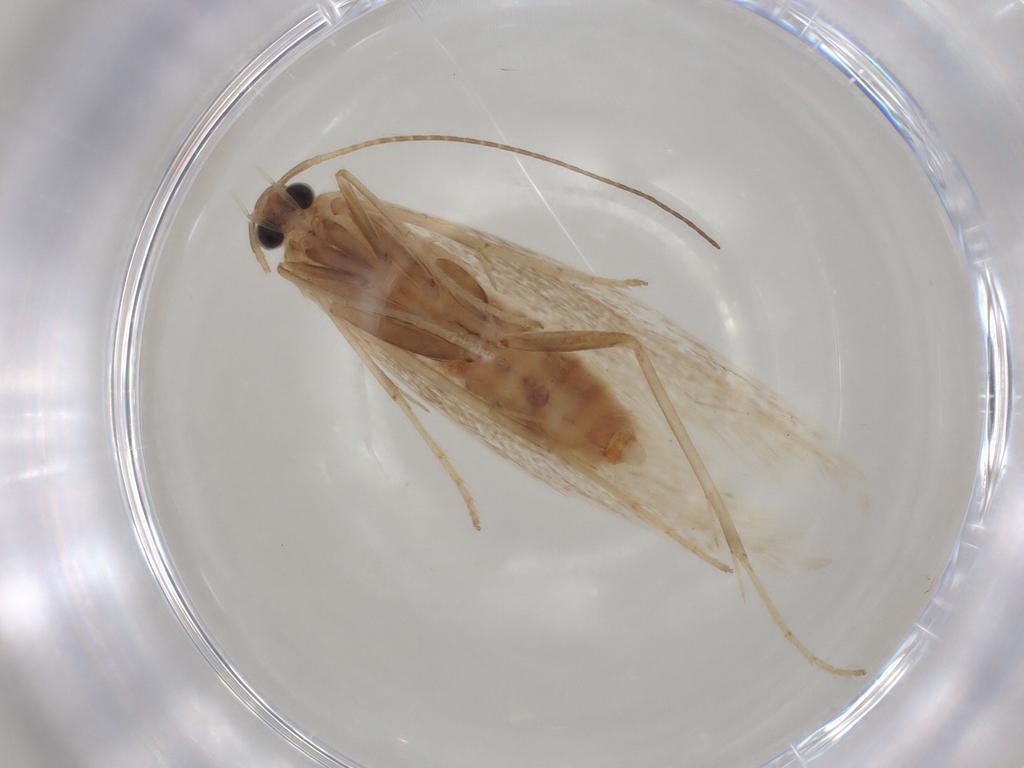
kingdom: Animalia
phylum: Arthropoda
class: Insecta
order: Lepidoptera
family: Coleophoridae
